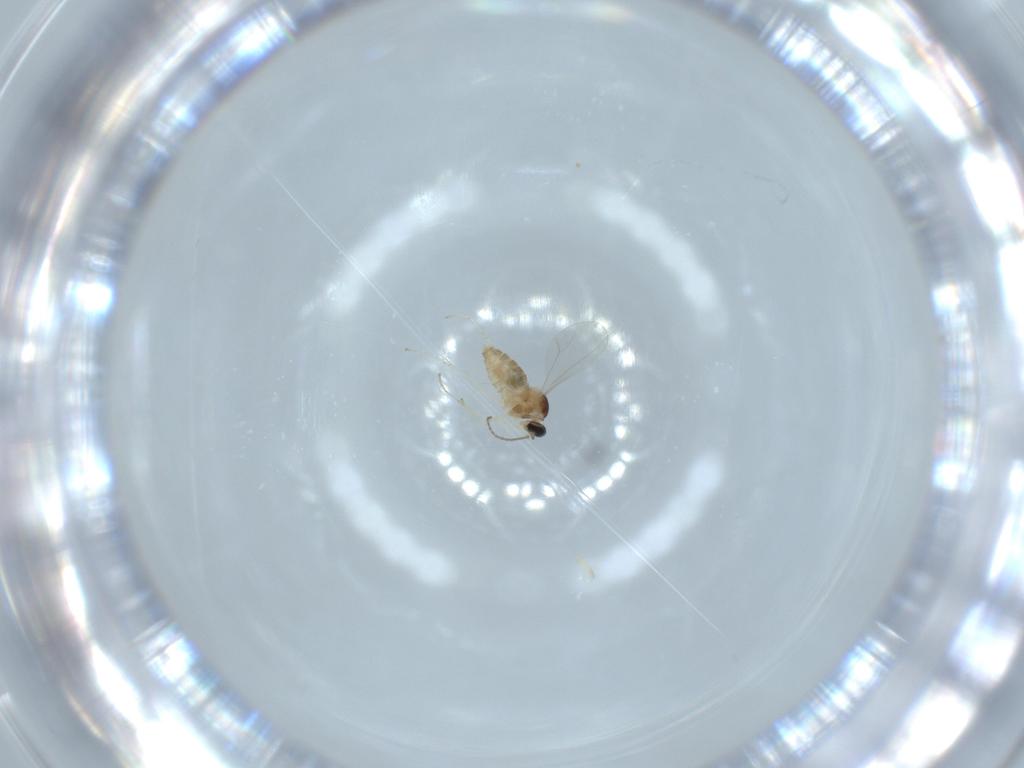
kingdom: Animalia
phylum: Arthropoda
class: Insecta
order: Diptera
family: Cecidomyiidae
